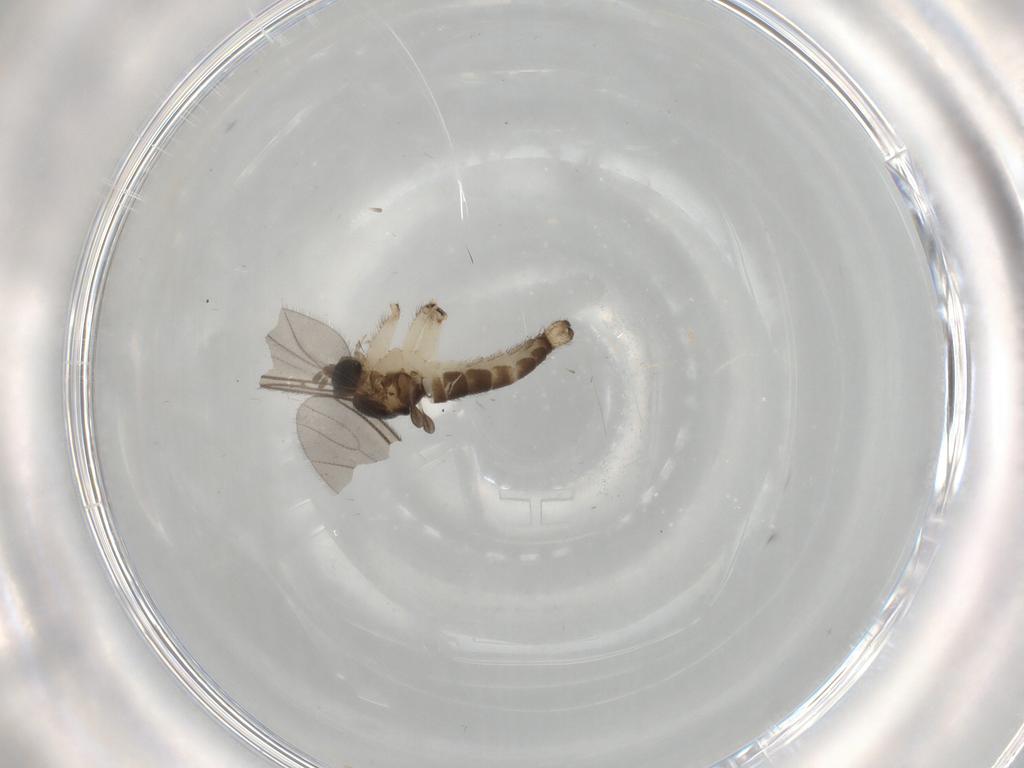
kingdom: Animalia
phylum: Arthropoda
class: Insecta
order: Diptera
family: Sciaridae
